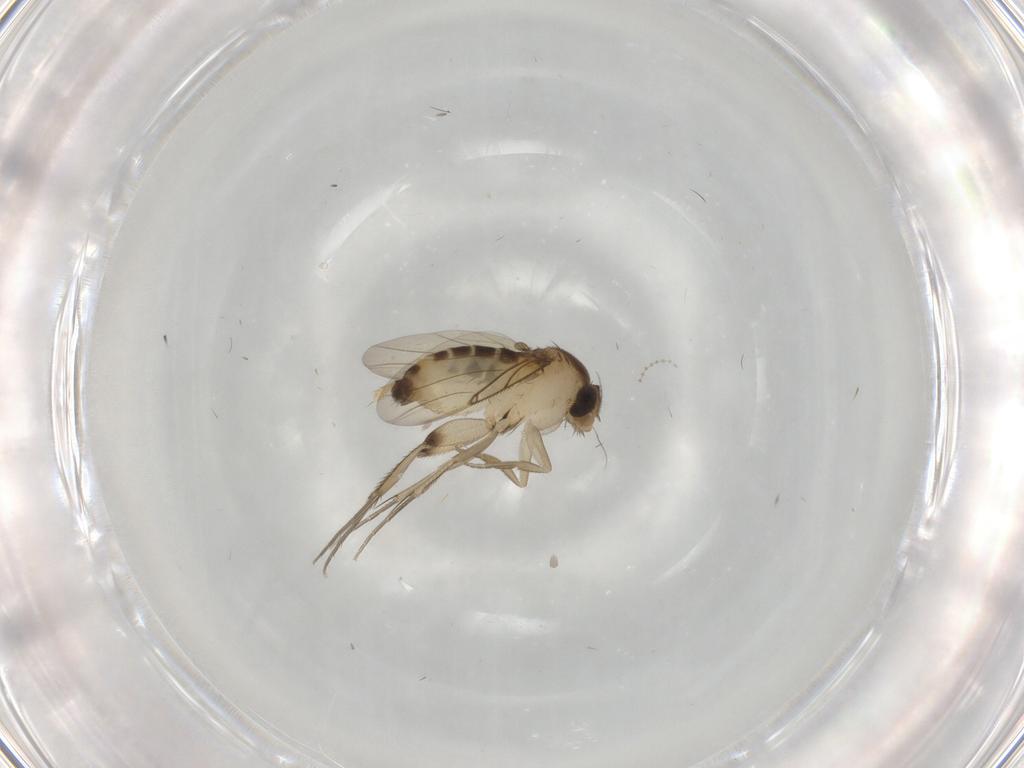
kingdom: Animalia
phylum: Arthropoda
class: Insecta
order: Diptera
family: Phoridae
